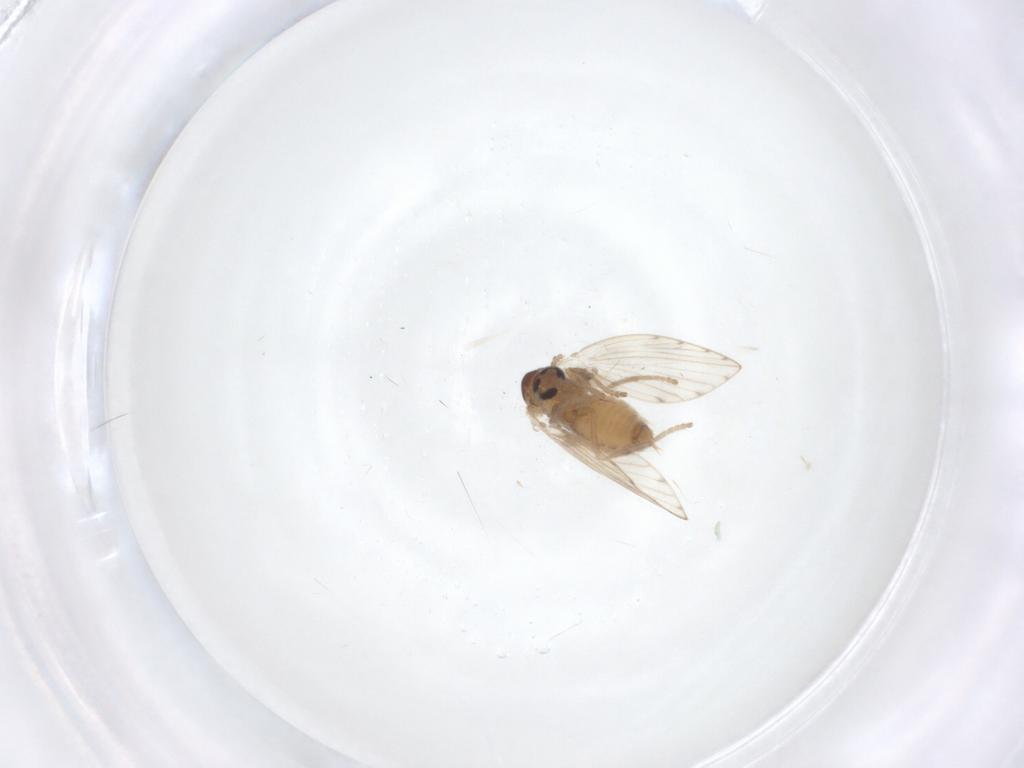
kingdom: Animalia
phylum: Arthropoda
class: Insecta
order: Diptera
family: Psychodidae
